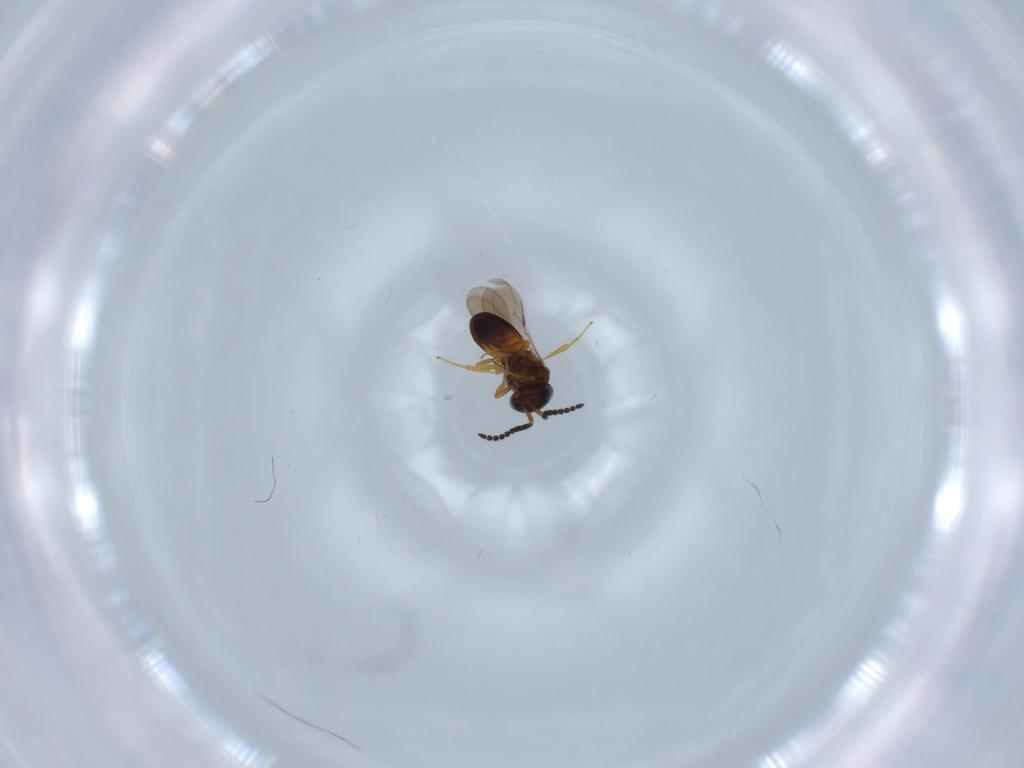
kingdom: Animalia
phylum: Arthropoda
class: Insecta
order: Hymenoptera
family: Scelionidae
